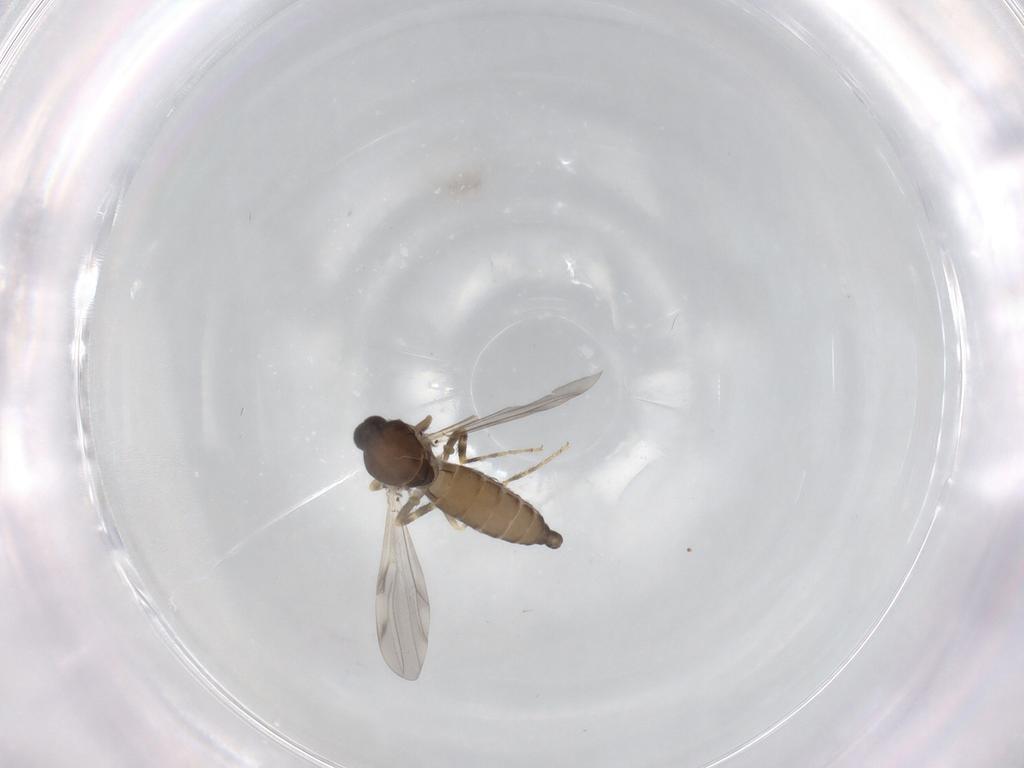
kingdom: Animalia
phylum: Arthropoda
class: Insecta
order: Diptera
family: Ceratopogonidae
